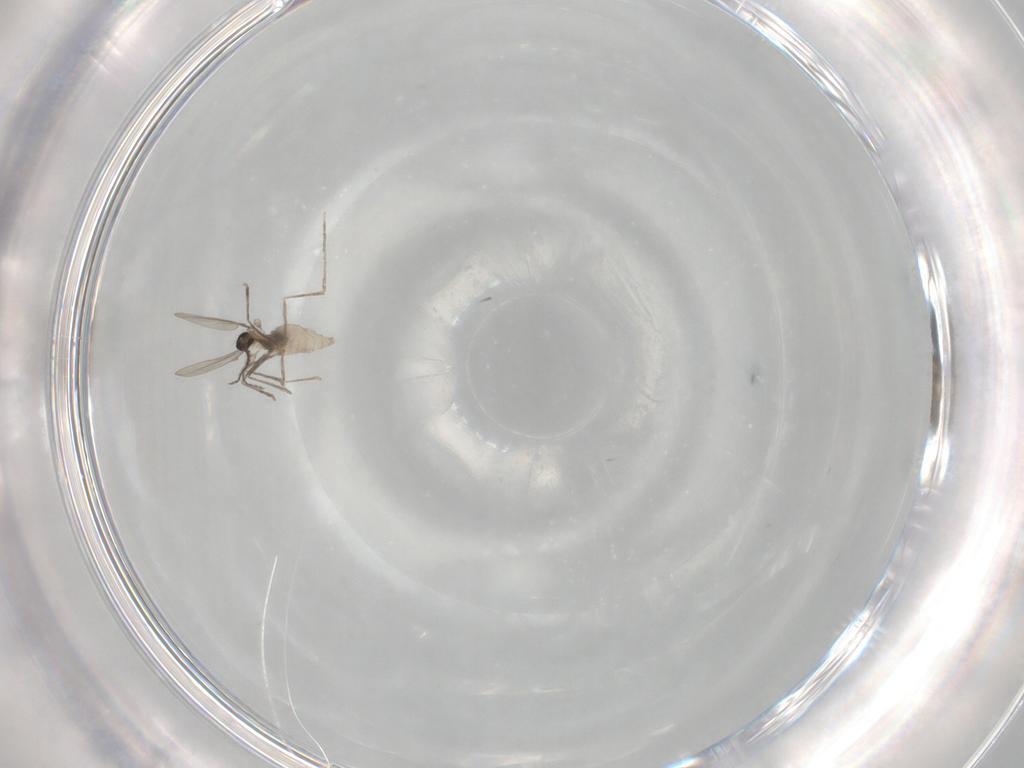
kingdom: Animalia
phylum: Arthropoda
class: Insecta
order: Diptera
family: Cecidomyiidae
